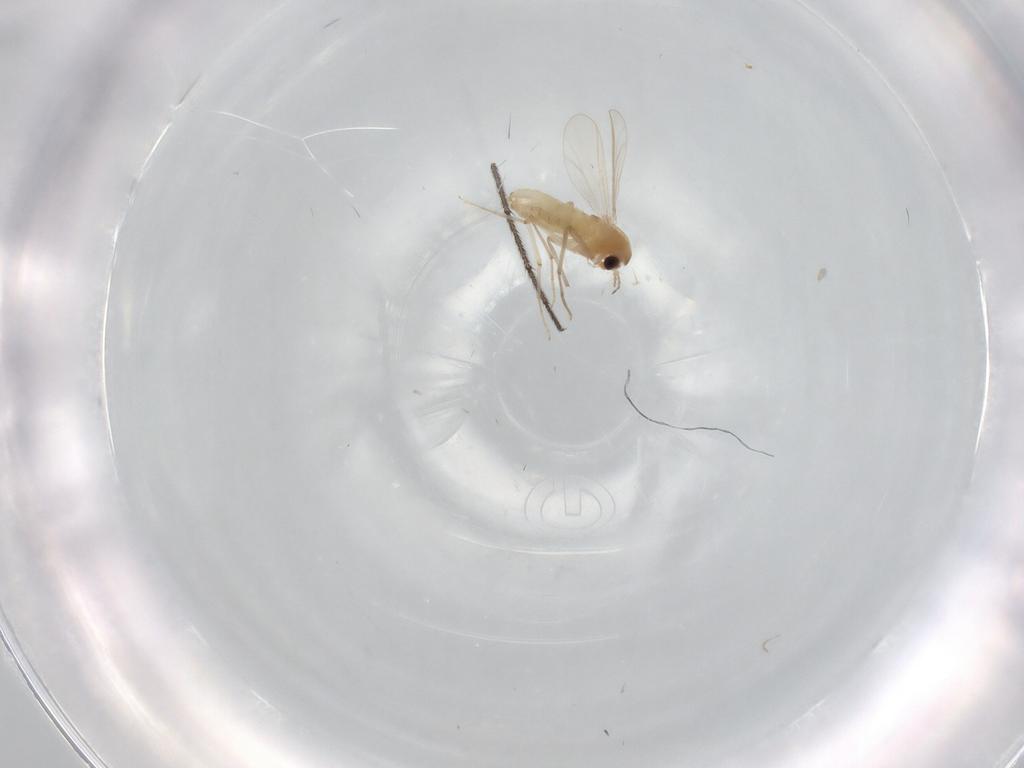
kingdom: Animalia
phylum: Arthropoda
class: Insecta
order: Diptera
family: Chironomidae
